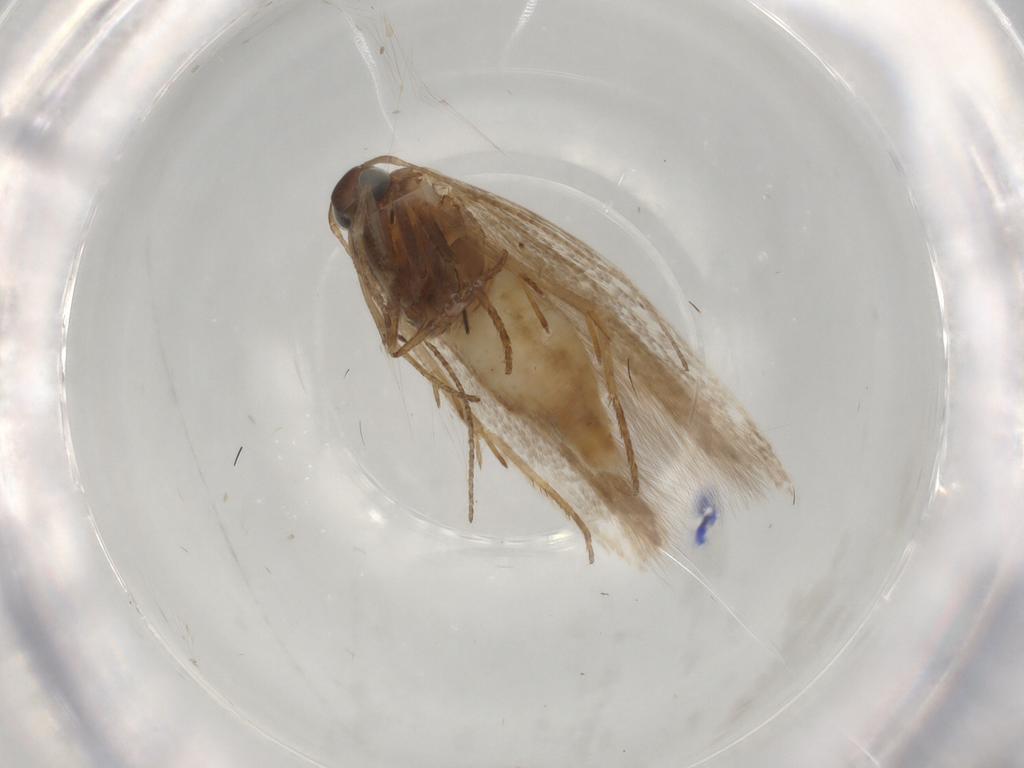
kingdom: Animalia
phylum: Arthropoda
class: Insecta
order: Lepidoptera
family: Gelechiidae
